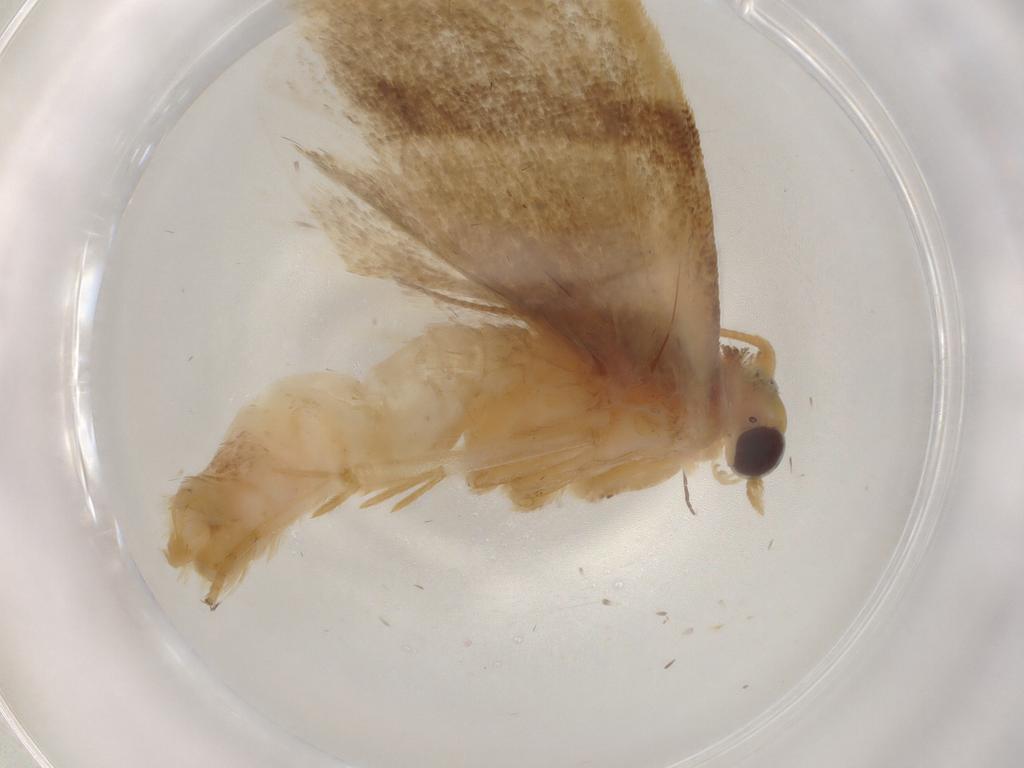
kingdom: Animalia
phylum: Arthropoda
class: Insecta
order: Lepidoptera
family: Tortricidae
